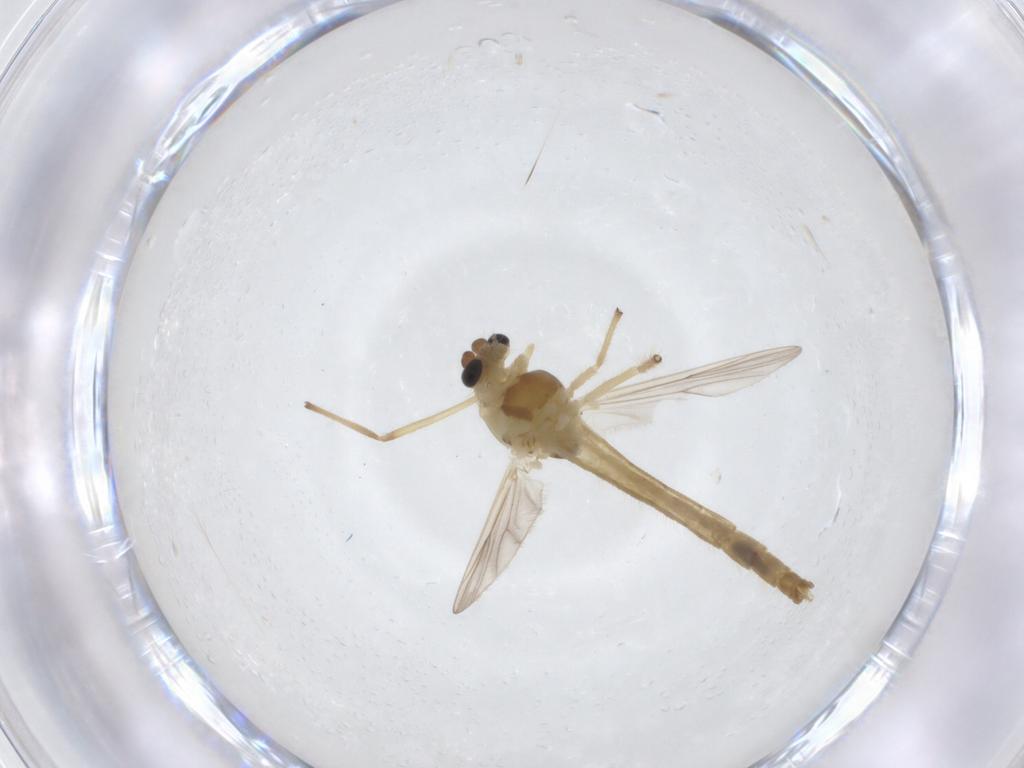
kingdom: Animalia
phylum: Arthropoda
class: Insecta
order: Diptera
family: Chironomidae
